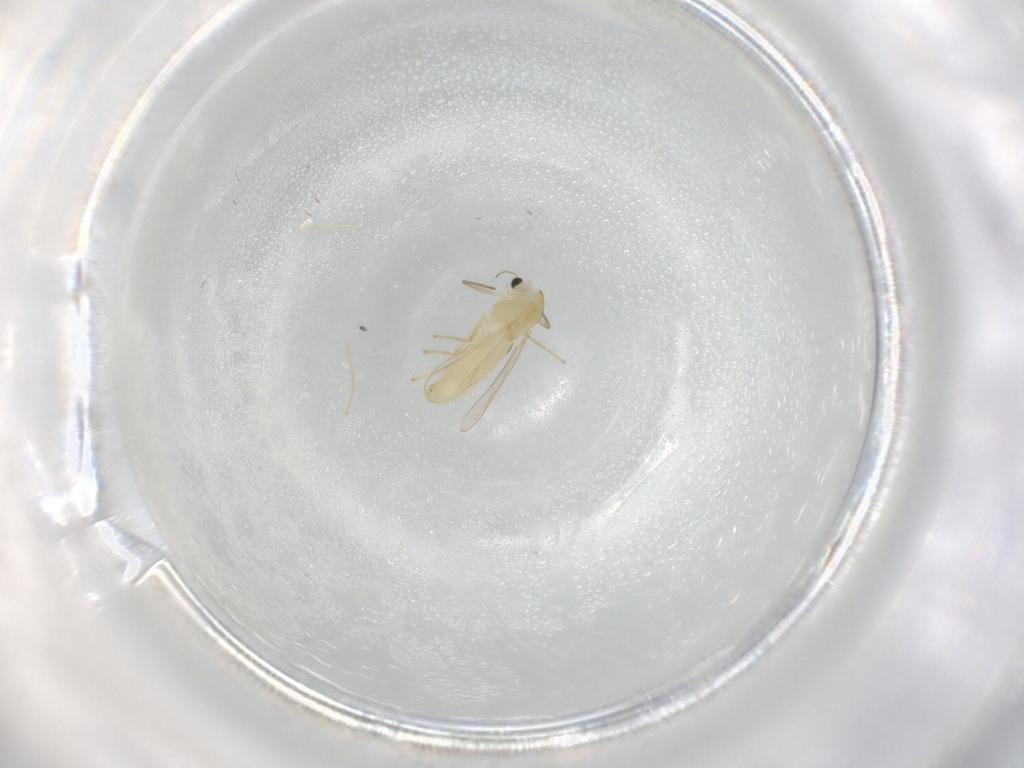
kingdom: Animalia
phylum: Arthropoda
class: Insecta
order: Diptera
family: Chironomidae
